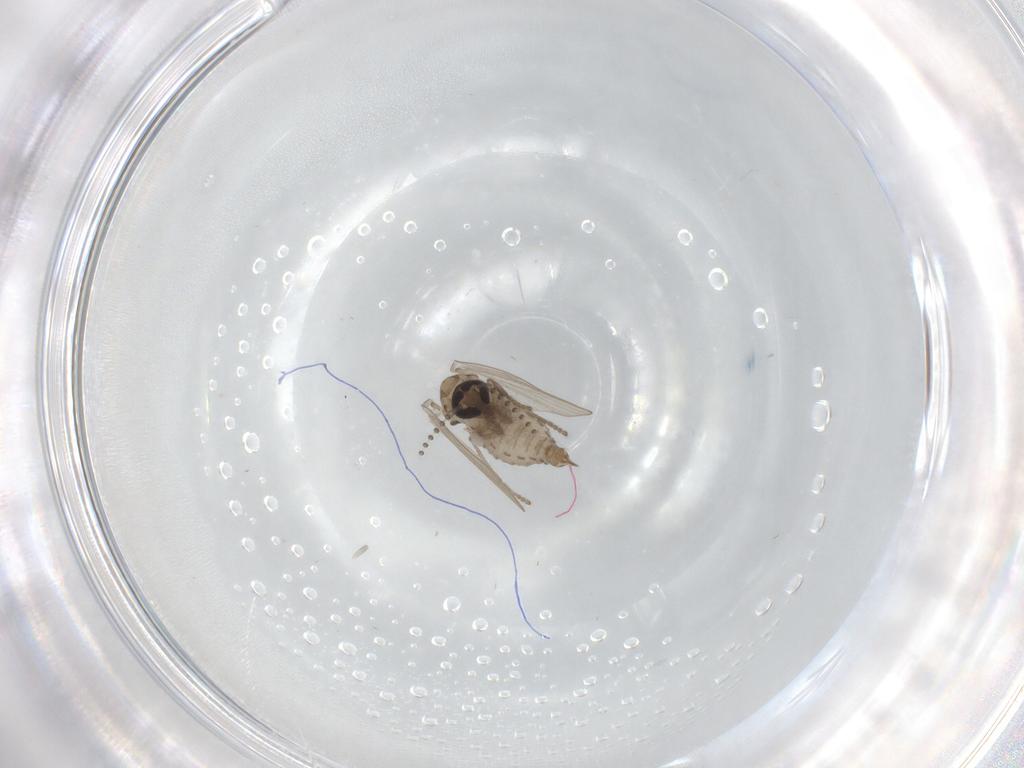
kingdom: Animalia
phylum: Arthropoda
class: Insecta
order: Diptera
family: Psychodidae
